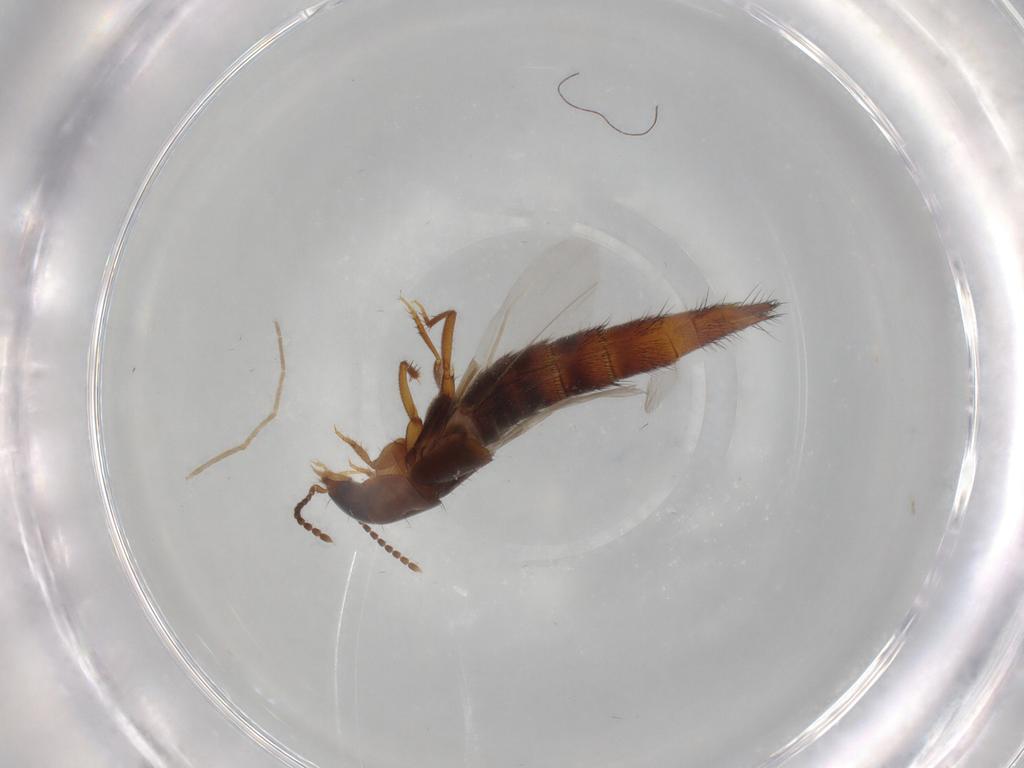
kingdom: Animalia
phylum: Arthropoda
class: Insecta
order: Coleoptera
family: Staphylinidae
